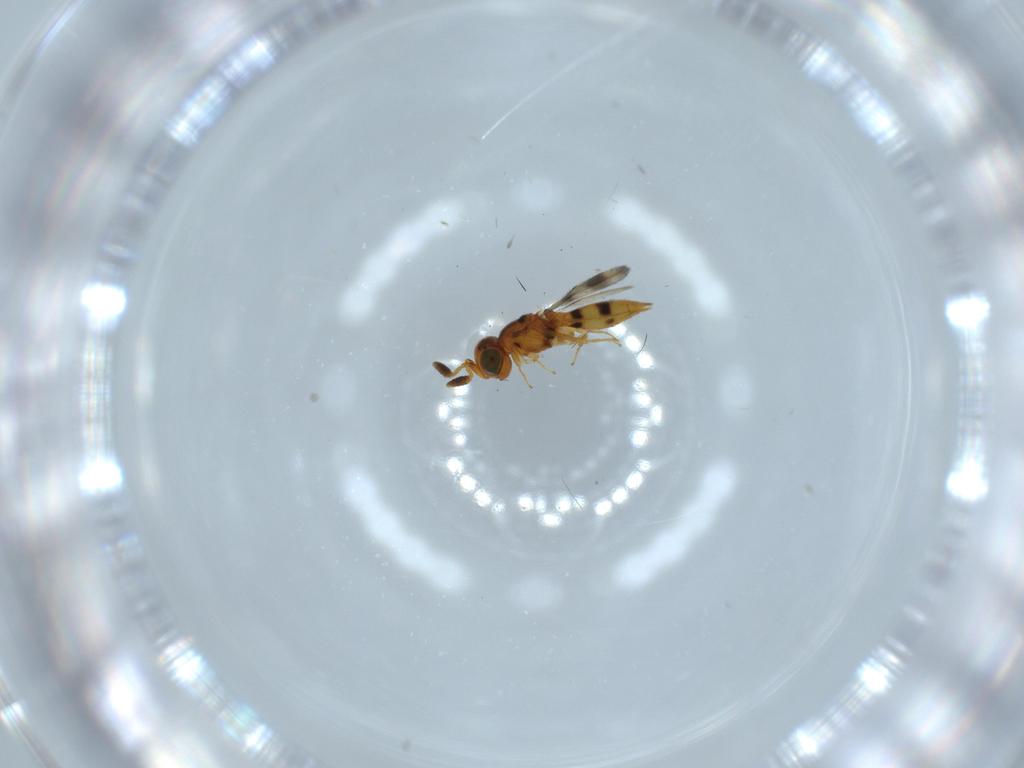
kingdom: Animalia
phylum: Arthropoda
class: Insecta
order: Hymenoptera
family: Scelionidae
